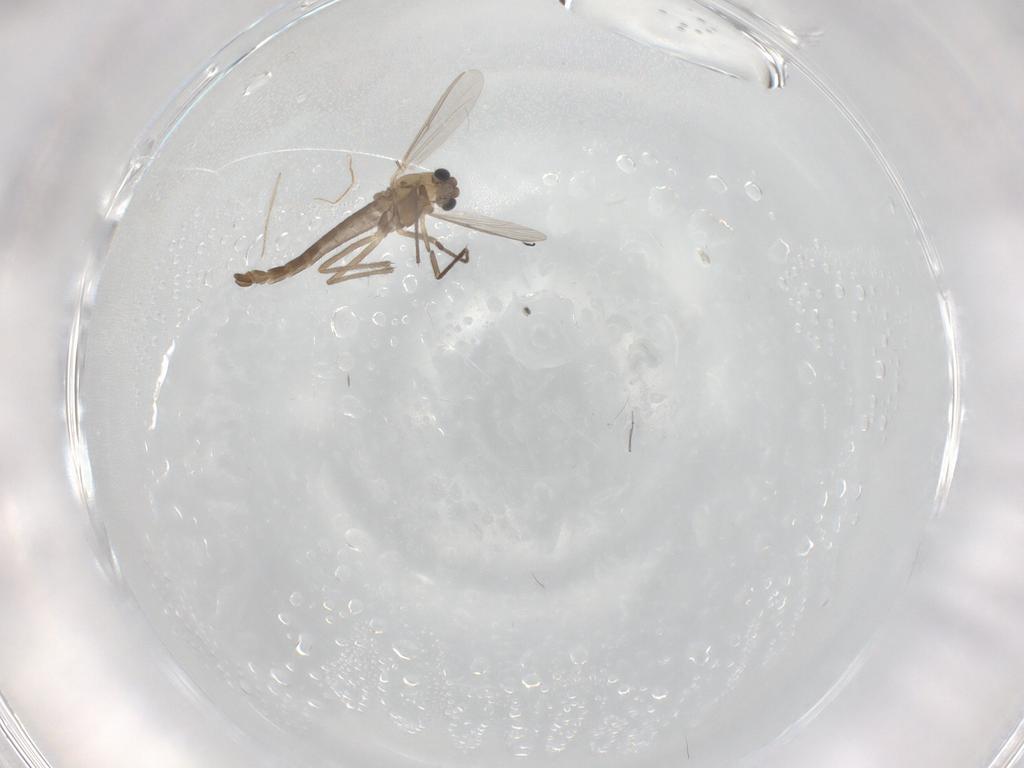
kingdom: Animalia
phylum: Arthropoda
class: Insecta
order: Diptera
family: Chironomidae
